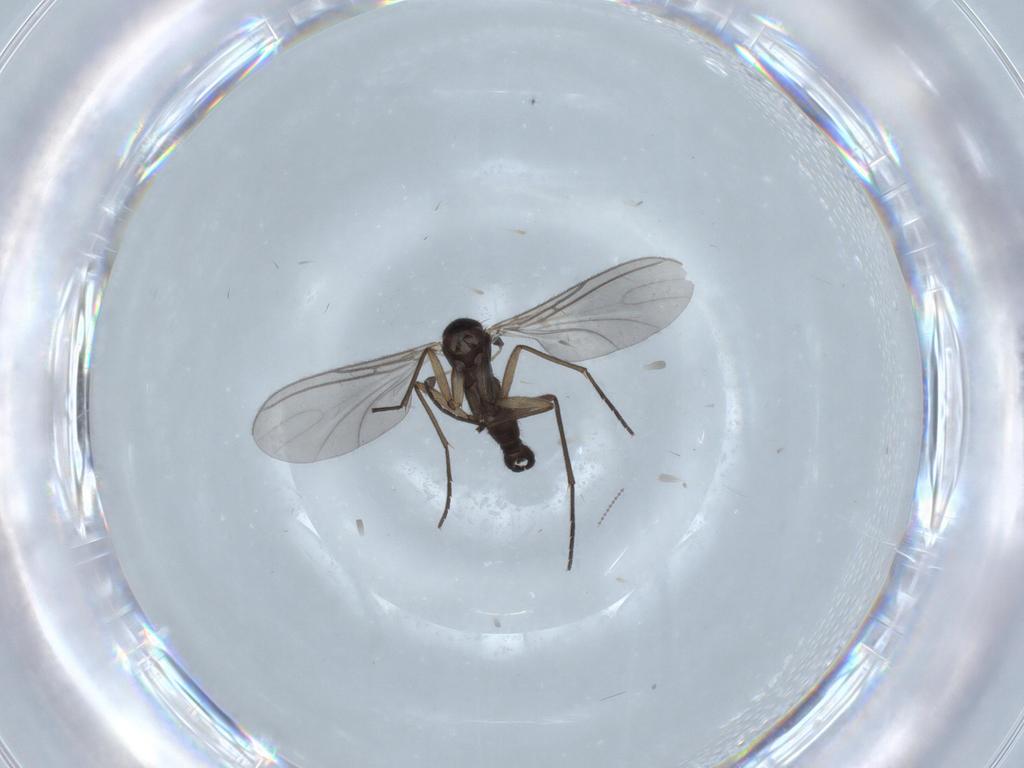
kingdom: Animalia
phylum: Arthropoda
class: Insecta
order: Diptera
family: Sciaridae
